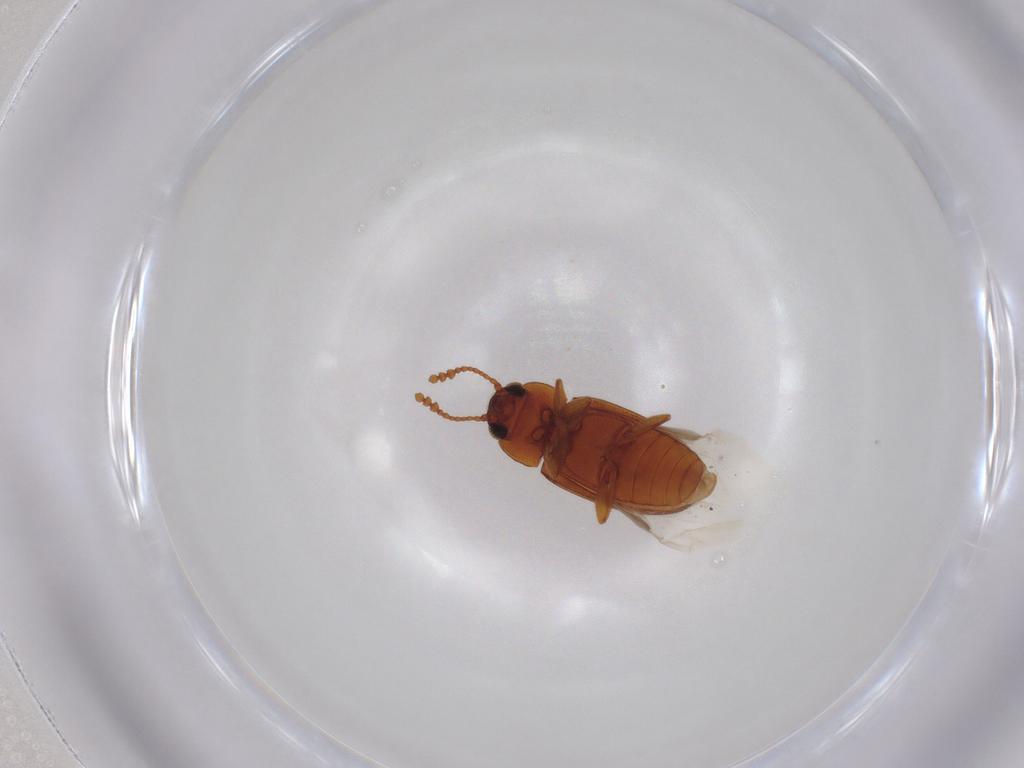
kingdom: Animalia
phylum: Arthropoda
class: Insecta
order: Coleoptera
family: Erotylidae
